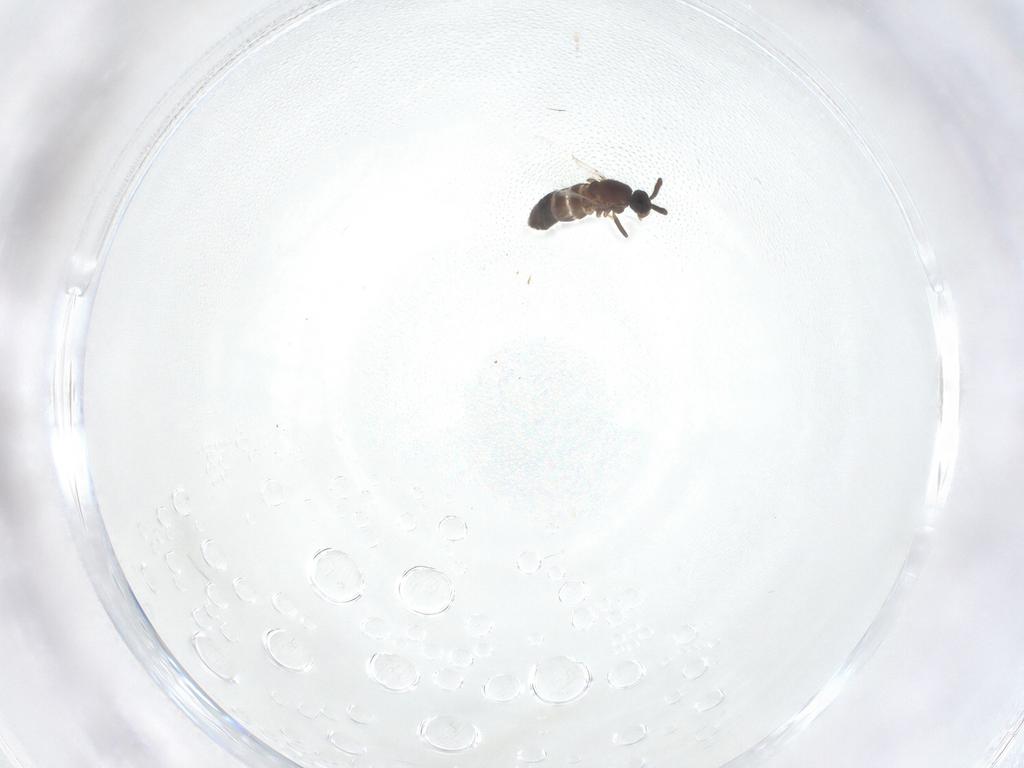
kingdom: Animalia
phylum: Arthropoda
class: Insecta
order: Diptera
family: Scatopsidae
